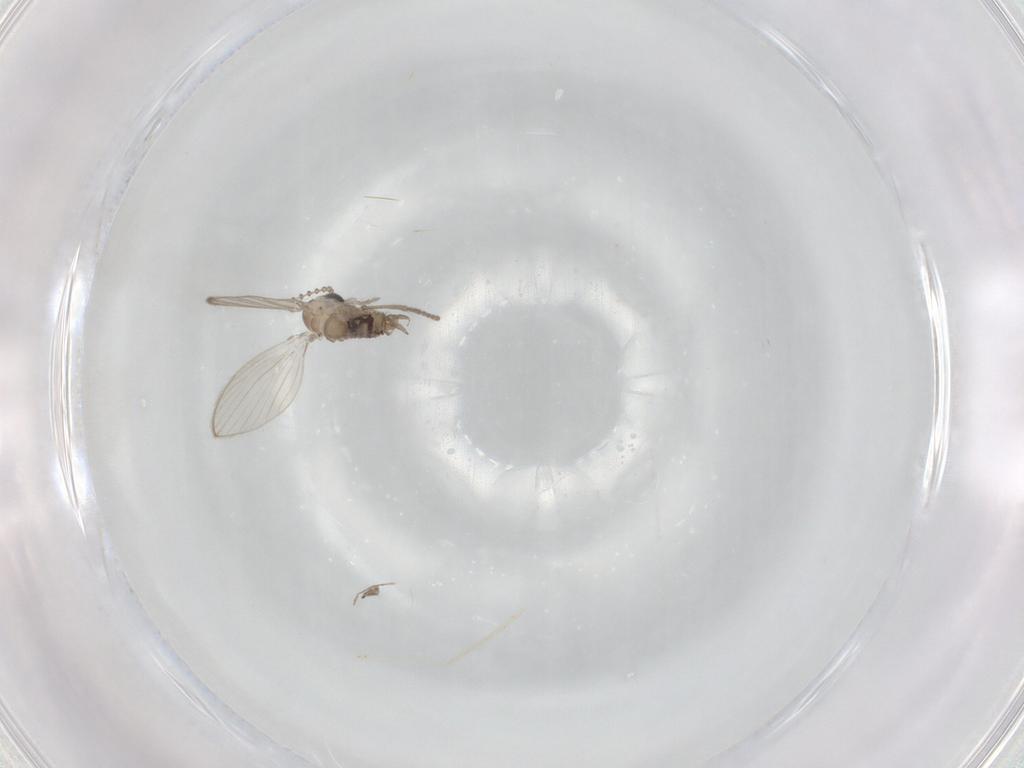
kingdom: Animalia
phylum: Arthropoda
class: Insecta
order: Diptera
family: Psychodidae
